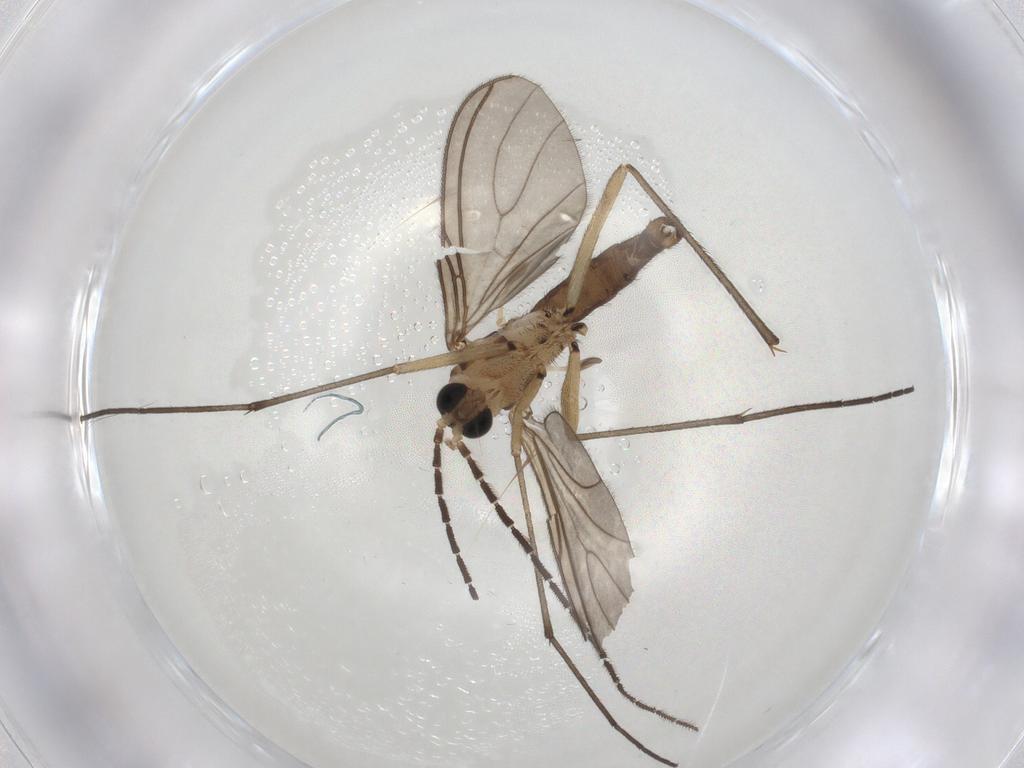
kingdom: Animalia
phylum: Arthropoda
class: Insecta
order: Diptera
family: Sciaridae
